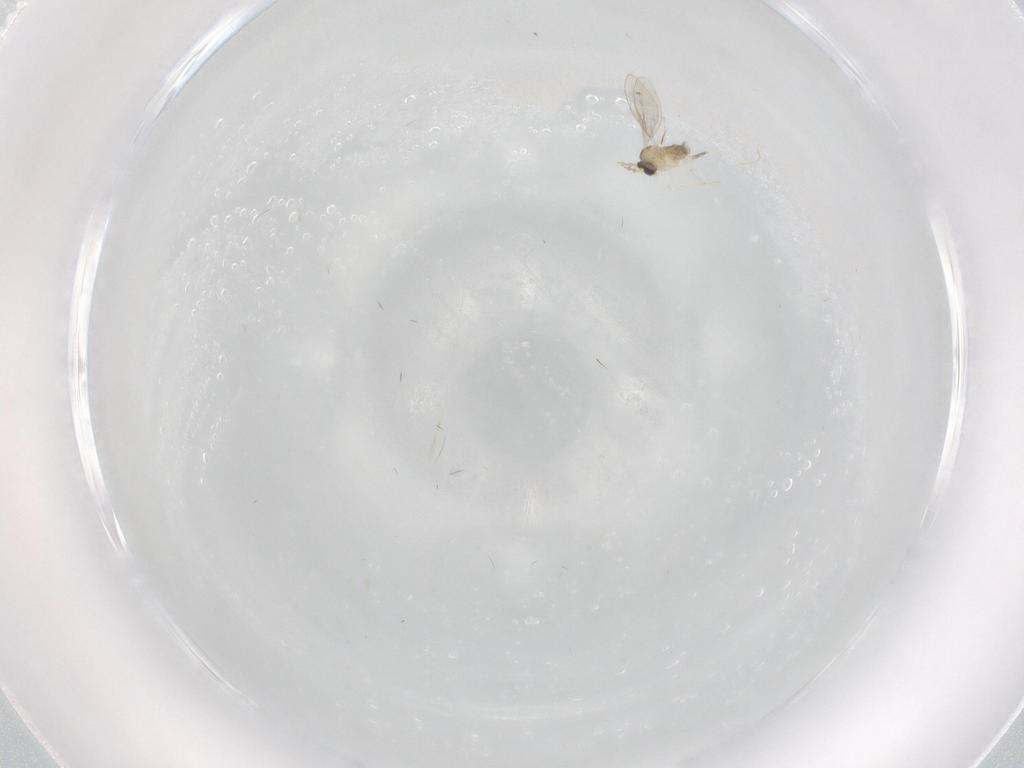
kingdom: Animalia
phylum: Arthropoda
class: Insecta
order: Diptera
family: Cecidomyiidae
